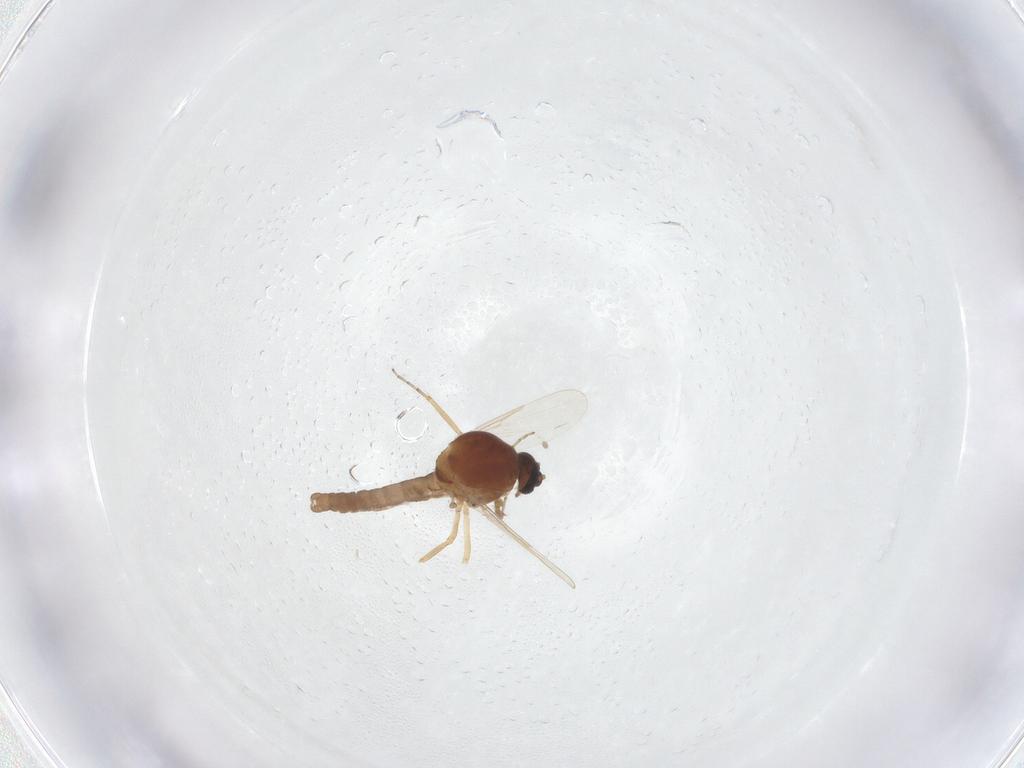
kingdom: Animalia
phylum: Arthropoda
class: Insecta
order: Diptera
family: Ceratopogonidae
